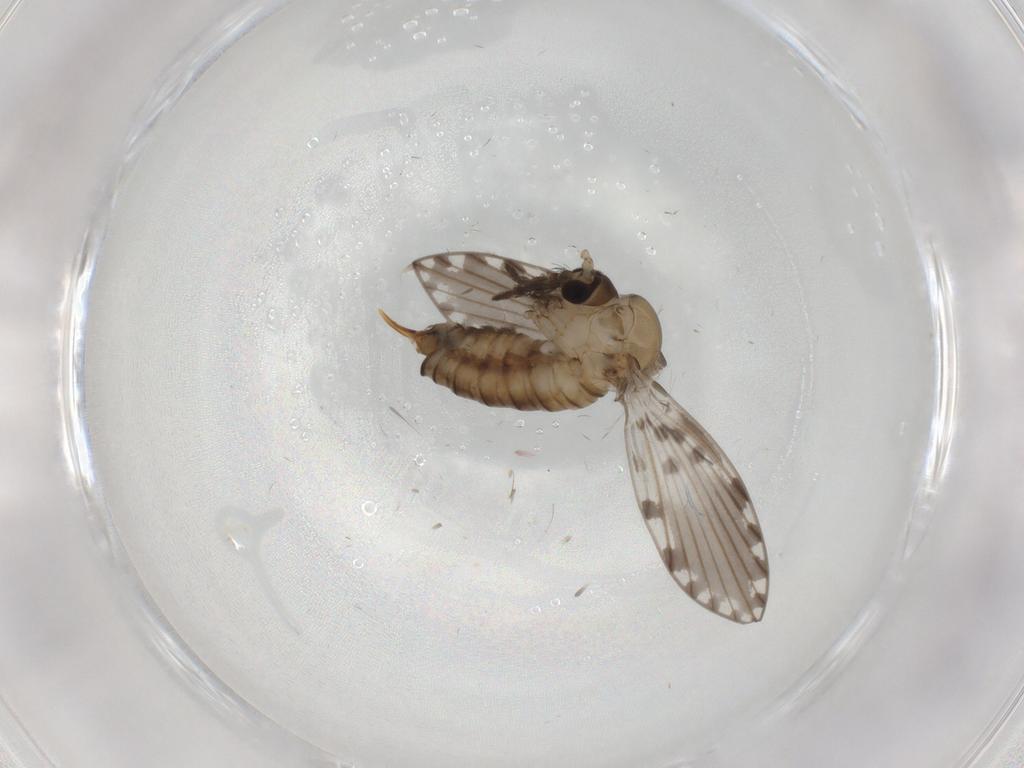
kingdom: Animalia
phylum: Arthropoda
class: Insecta
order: Diptera
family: Psychodidae
